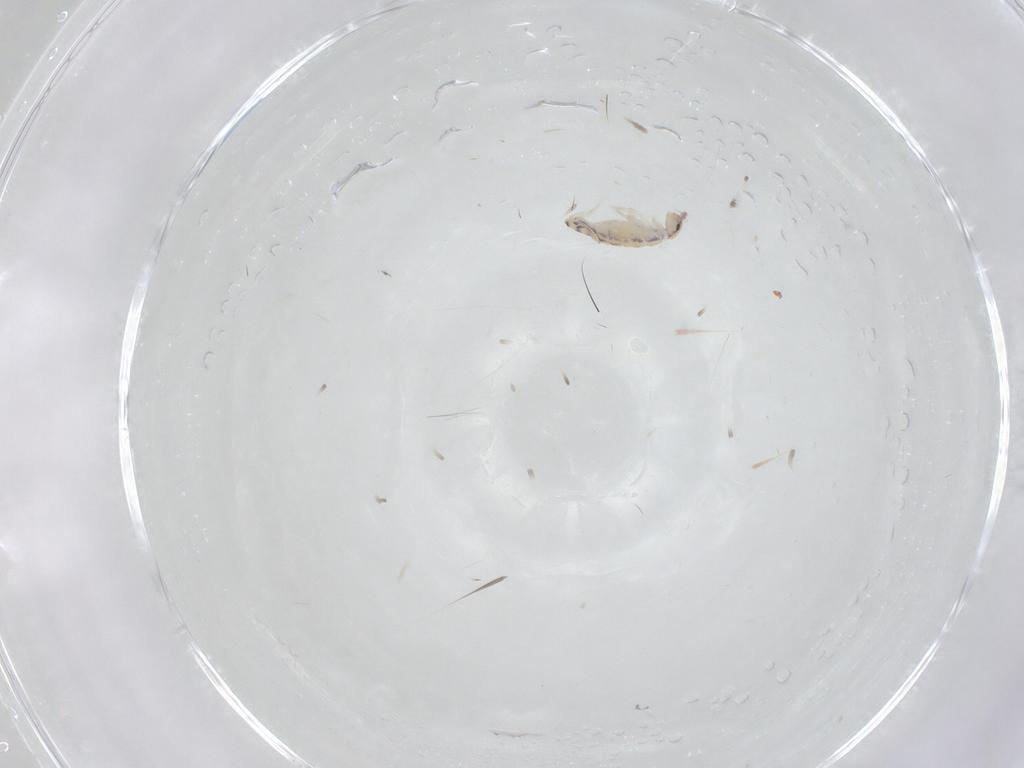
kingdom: Animalia
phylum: Arthropoda
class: Collembola
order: Entomobryomorpha
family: Entomobryidae
